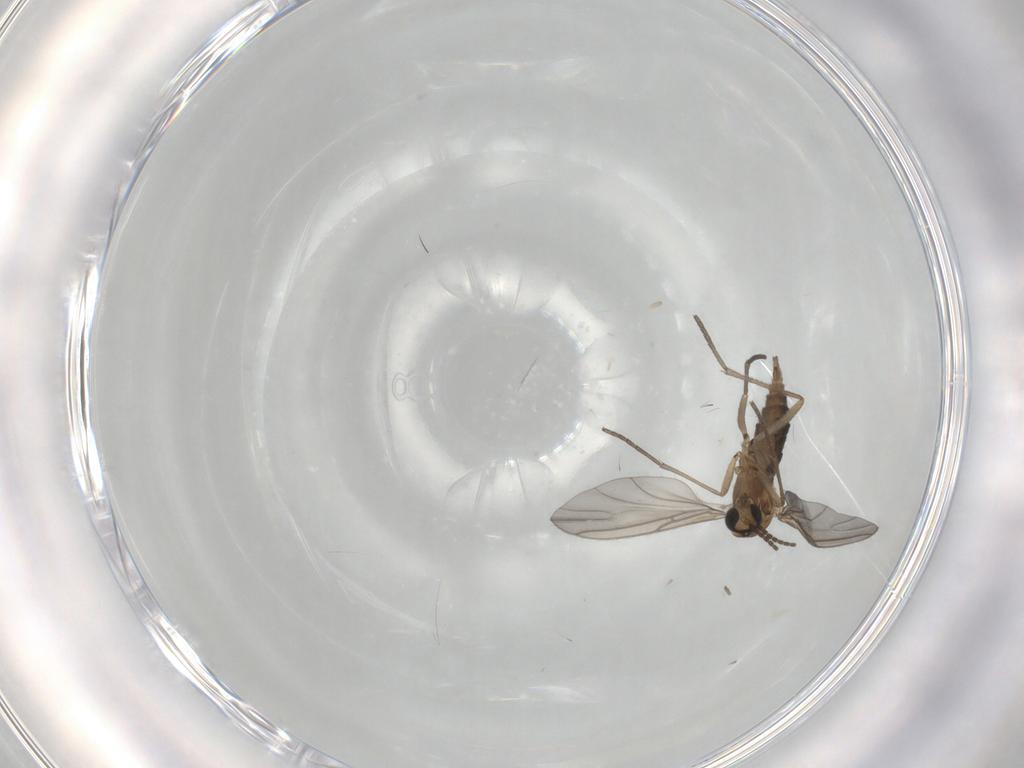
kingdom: Animalia
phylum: Arthropoda
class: Insecta
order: Diptera
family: Sciaridae
